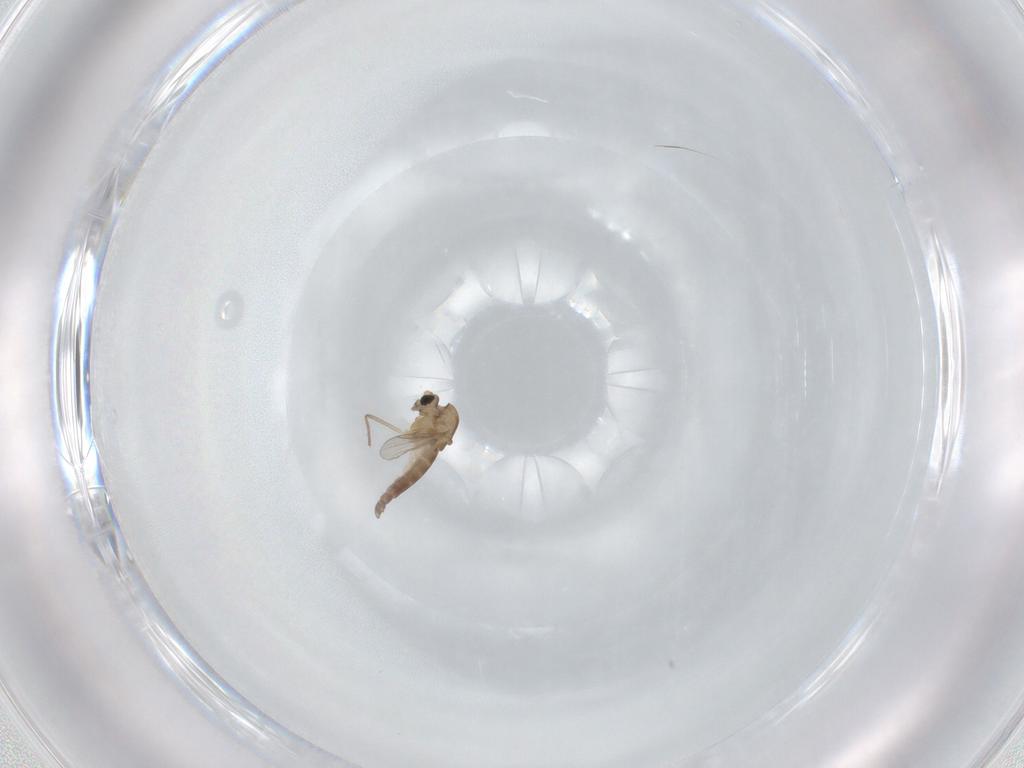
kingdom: Animalia
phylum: Arthropoda
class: Insecta
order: Diptera
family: Chironomidae
